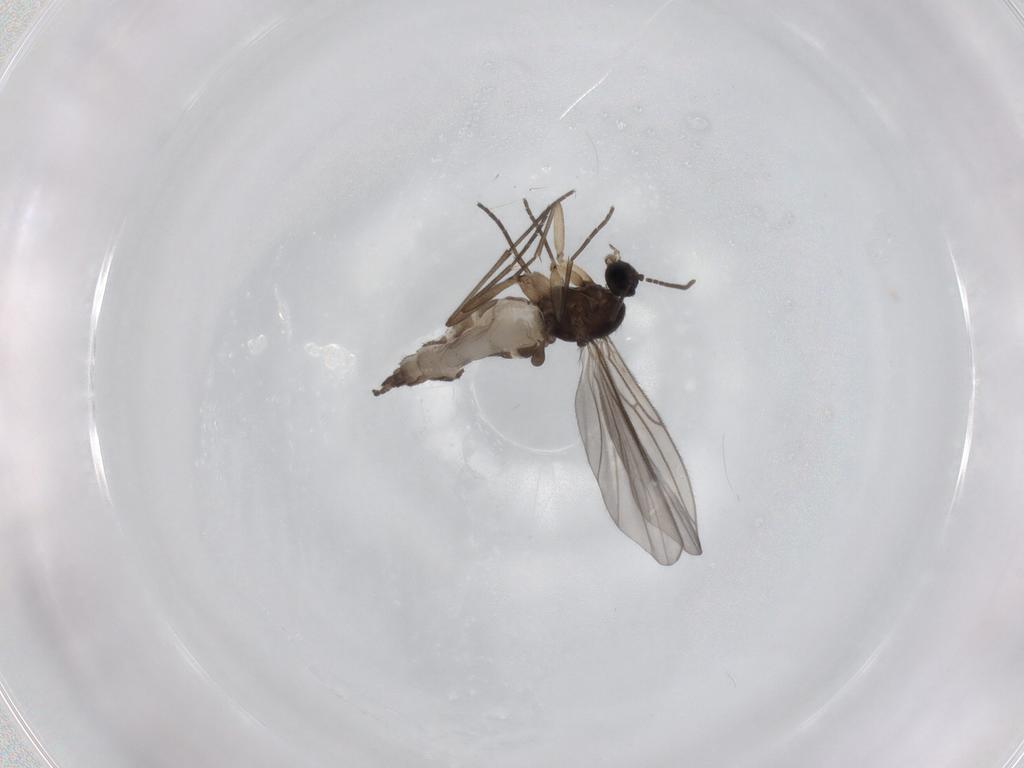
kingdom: Animalia
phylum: Arthropoda
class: Insecta
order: Diptera
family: Sciaridae
